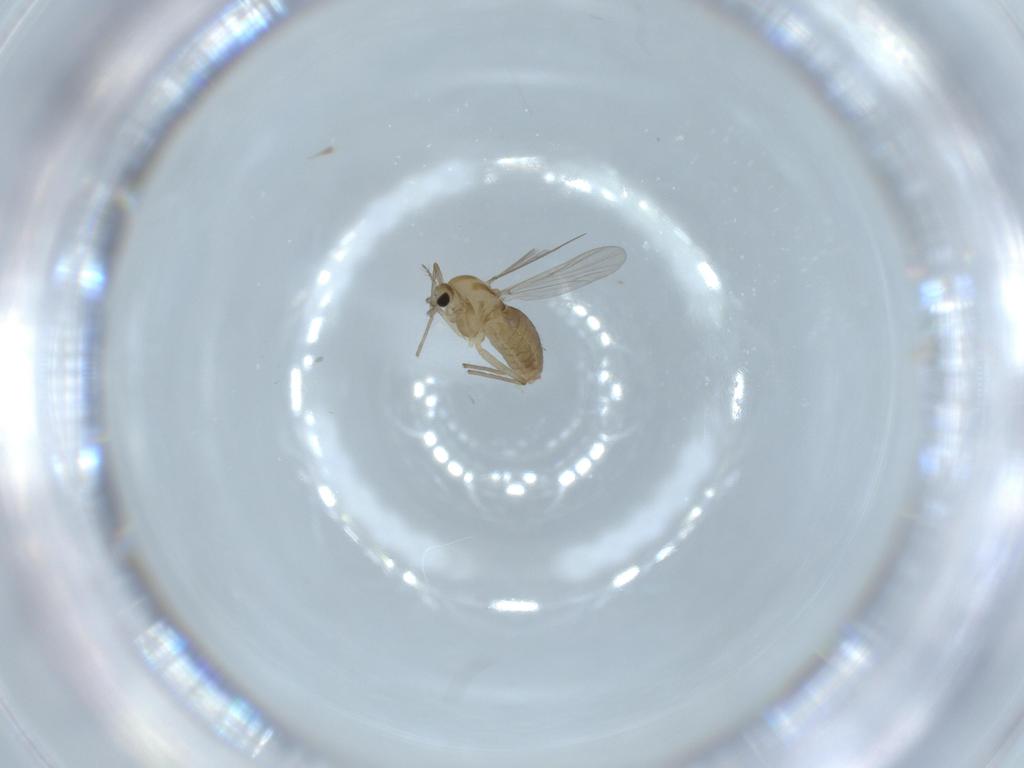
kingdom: Animalia
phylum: Arthropoda
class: Insecta
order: Diptera
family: Chironomidae
